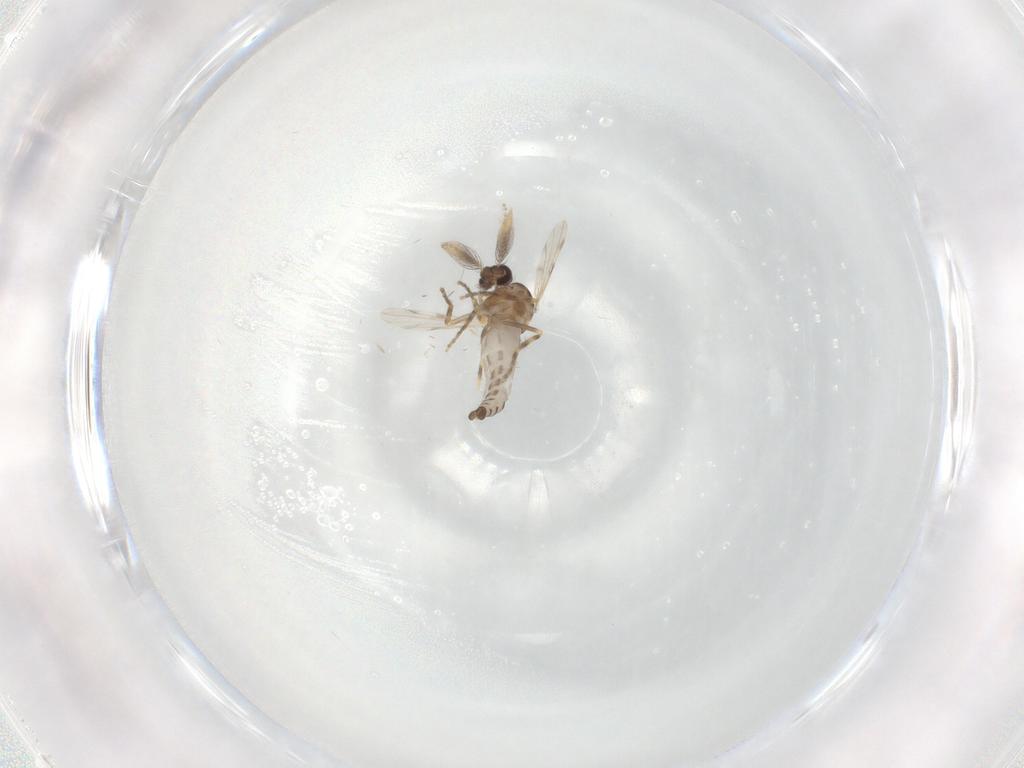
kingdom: Animalia
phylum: Arthropoda
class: Insecta
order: Diptera
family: Ceratopogonidae
